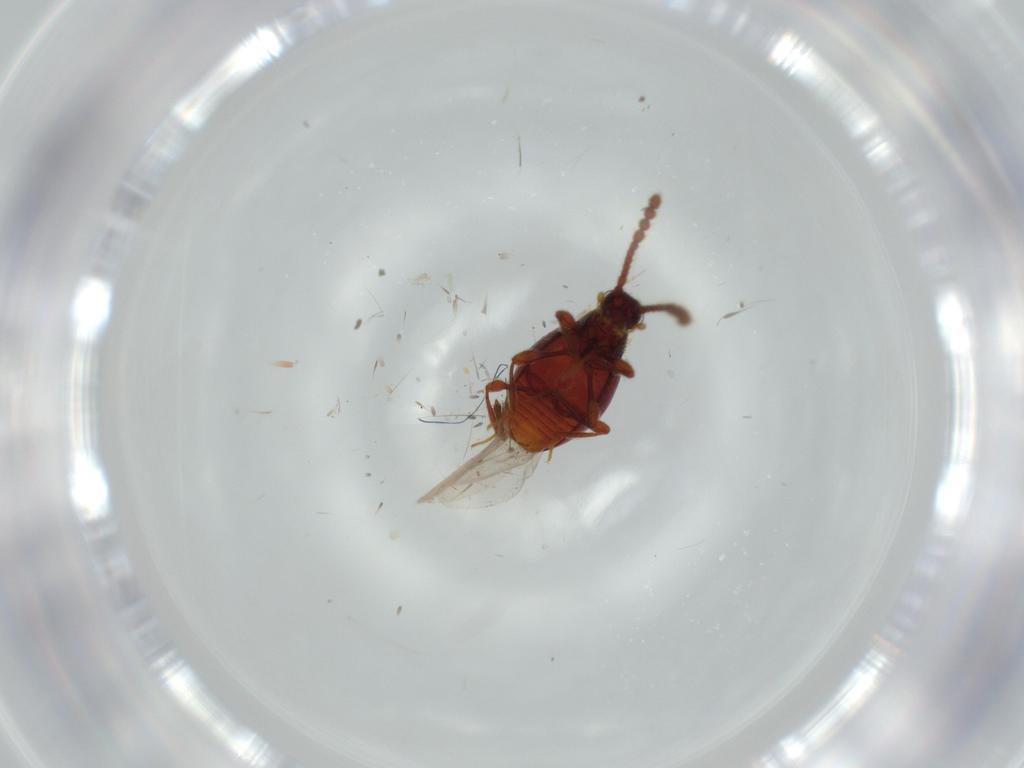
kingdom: Animalia
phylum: Arthropoda
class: Insecta
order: Coleoptera
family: Staphylinidae
